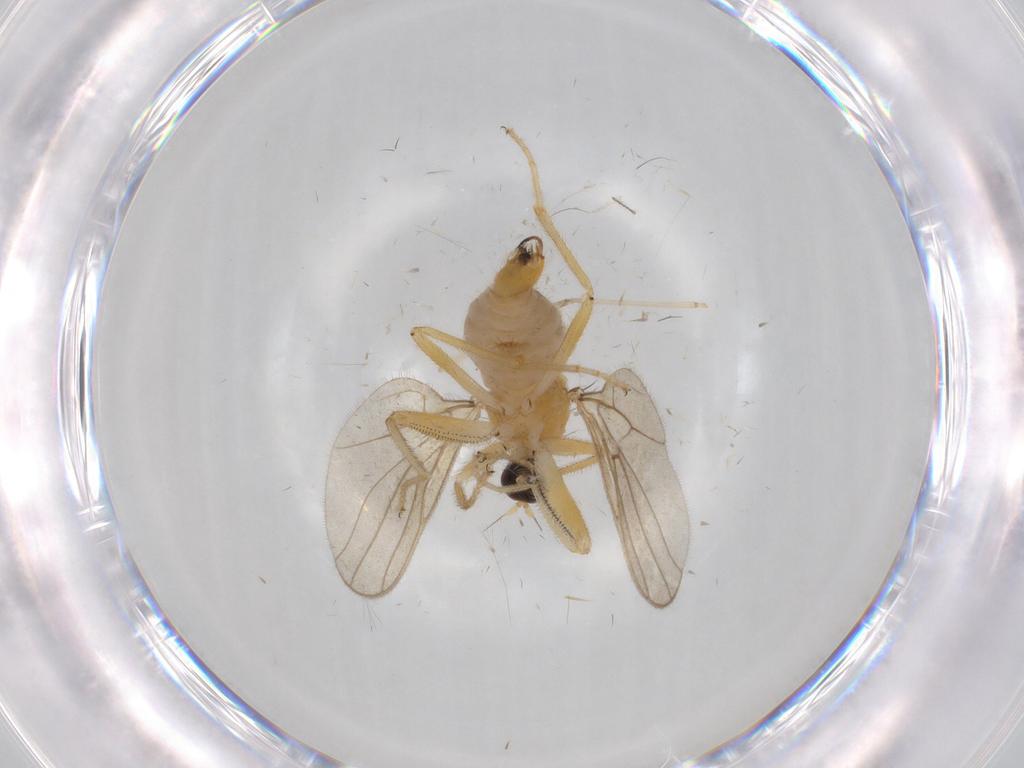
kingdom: Animalia
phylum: Arthropoda
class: Insecta
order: Diptera
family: Hybotidae
